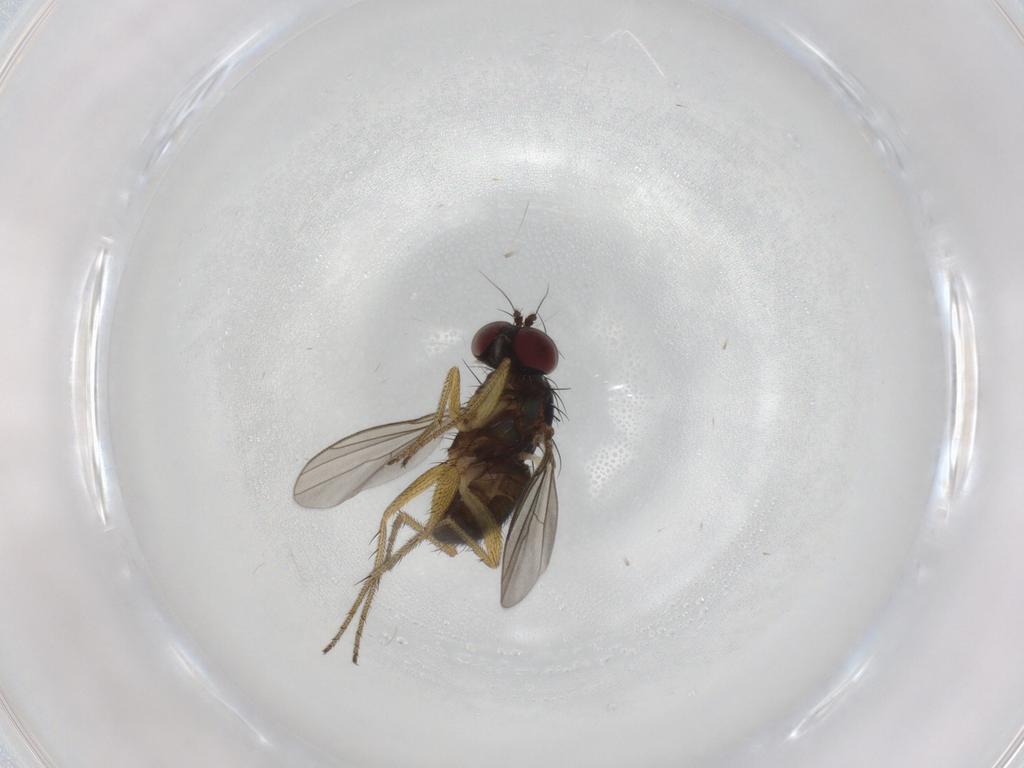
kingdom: Animalia
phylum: Arthropoda
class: Insecta
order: Diptera
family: Dolichopodidae
